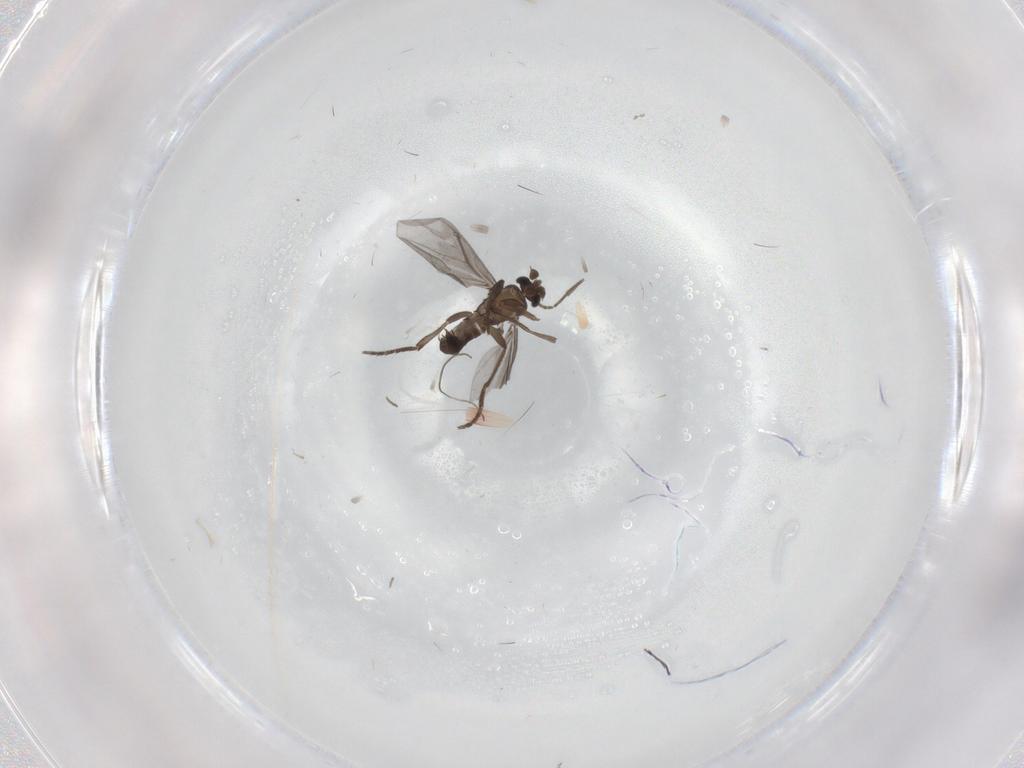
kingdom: Animalia
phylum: Arthropoda
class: Insecta
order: Diptera
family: Phoridae
